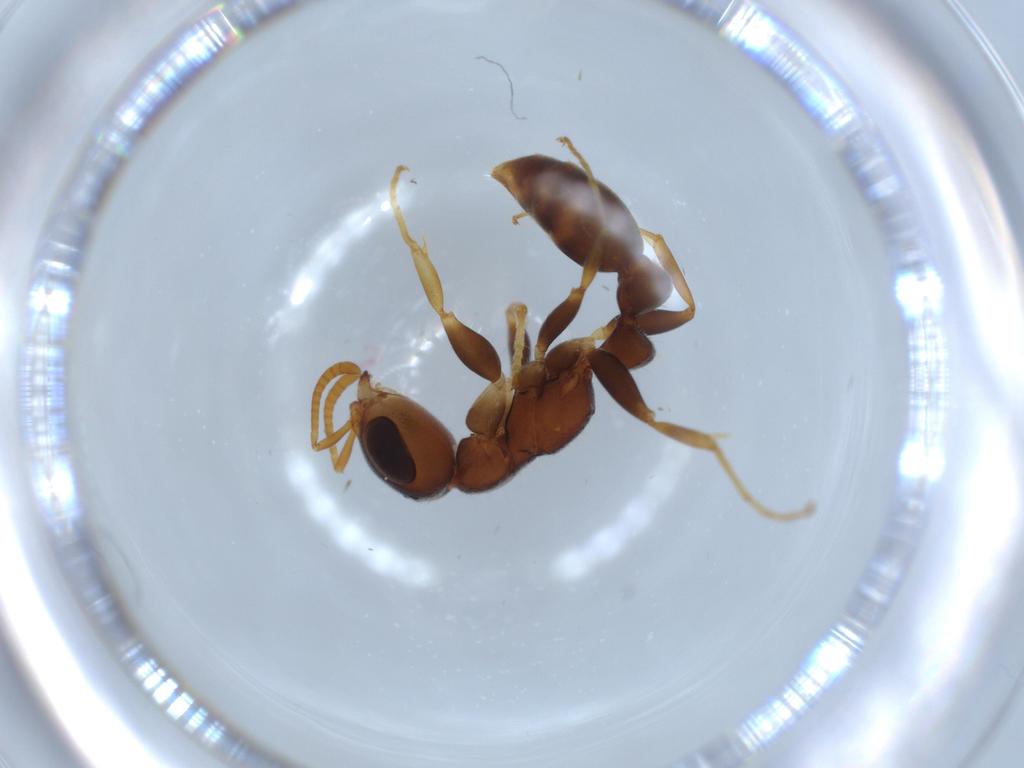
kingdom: Animalia
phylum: Arthropoda
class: Insecta
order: Hymenoptera
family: Formicidae
